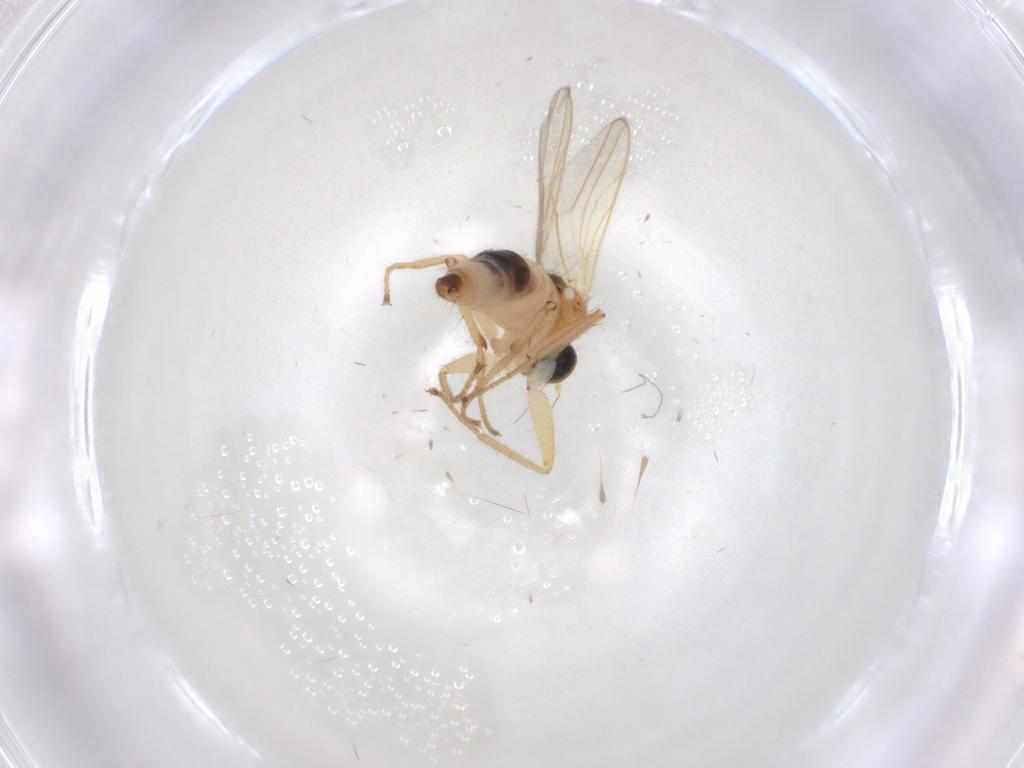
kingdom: Animalia
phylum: Arthropoda
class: Insecta
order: Diptera
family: Hybotidae
